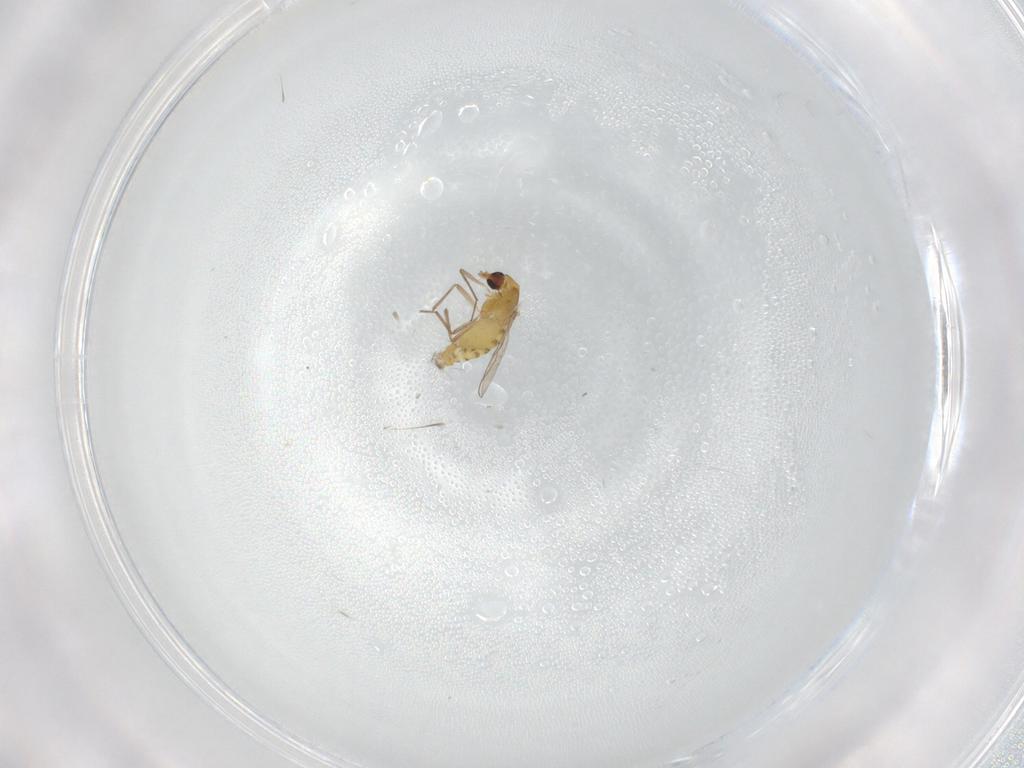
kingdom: Animalia
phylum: Arthropoda
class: Insecta
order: Diptera
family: Chironomidae
